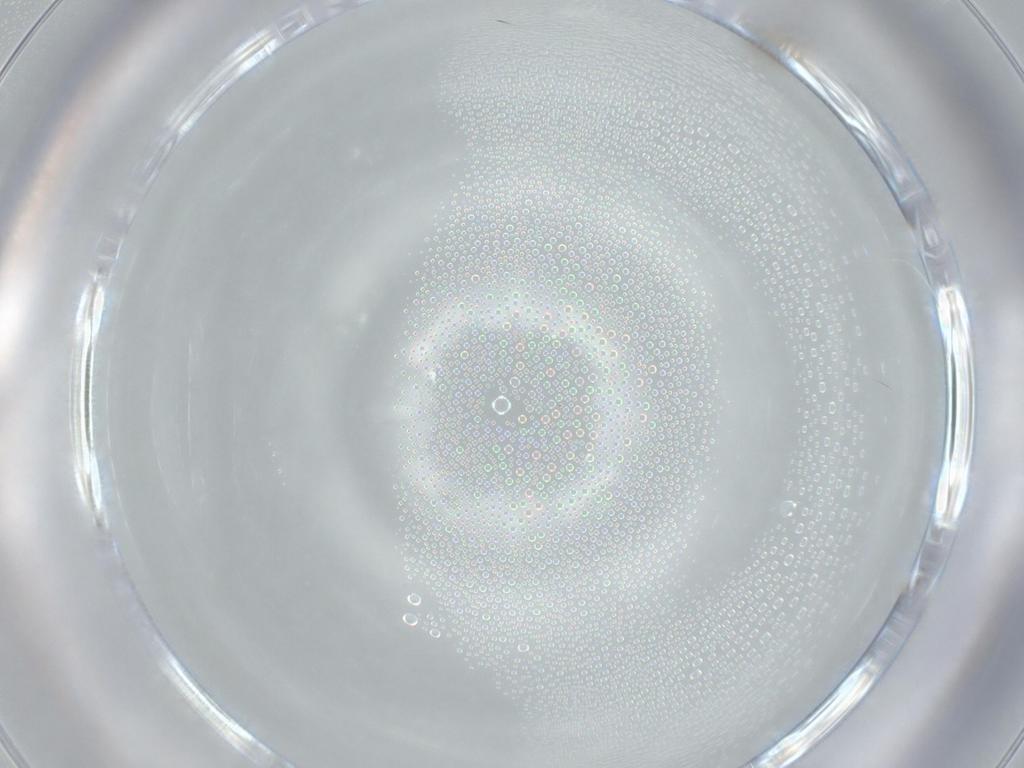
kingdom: Animalia
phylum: Arthropoda
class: Insecta
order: Diptera
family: Cecidomyiidae
